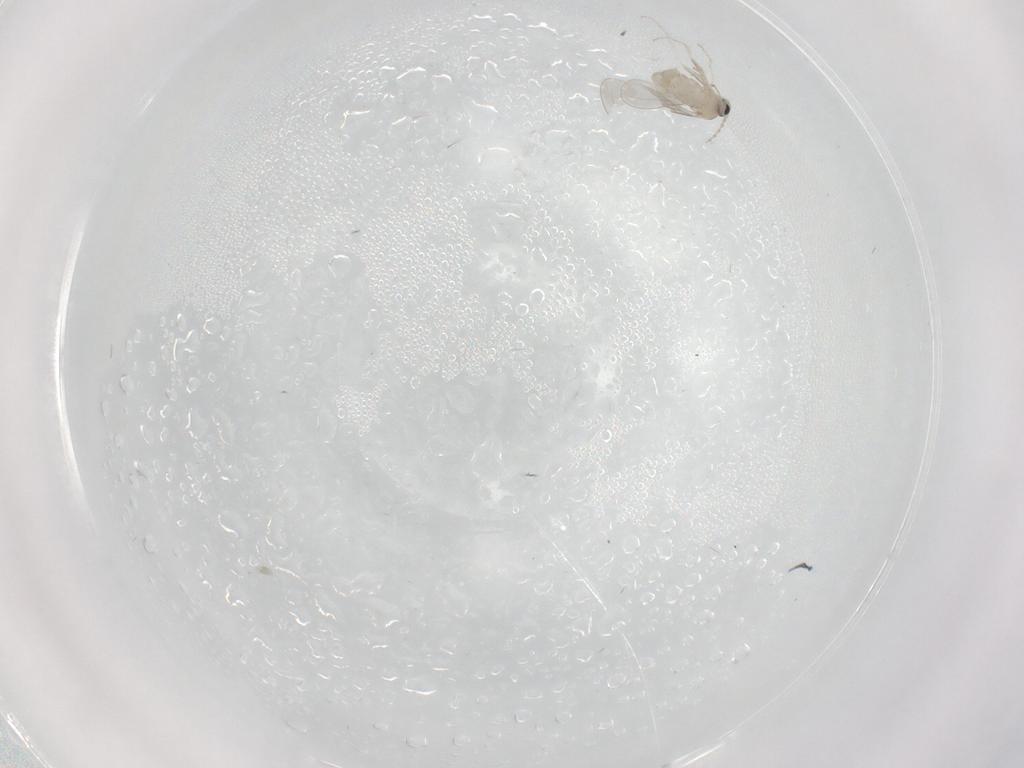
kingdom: Animalia
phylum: Arthropoda
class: Insecta
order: Diptera
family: Cecidomyiidae
